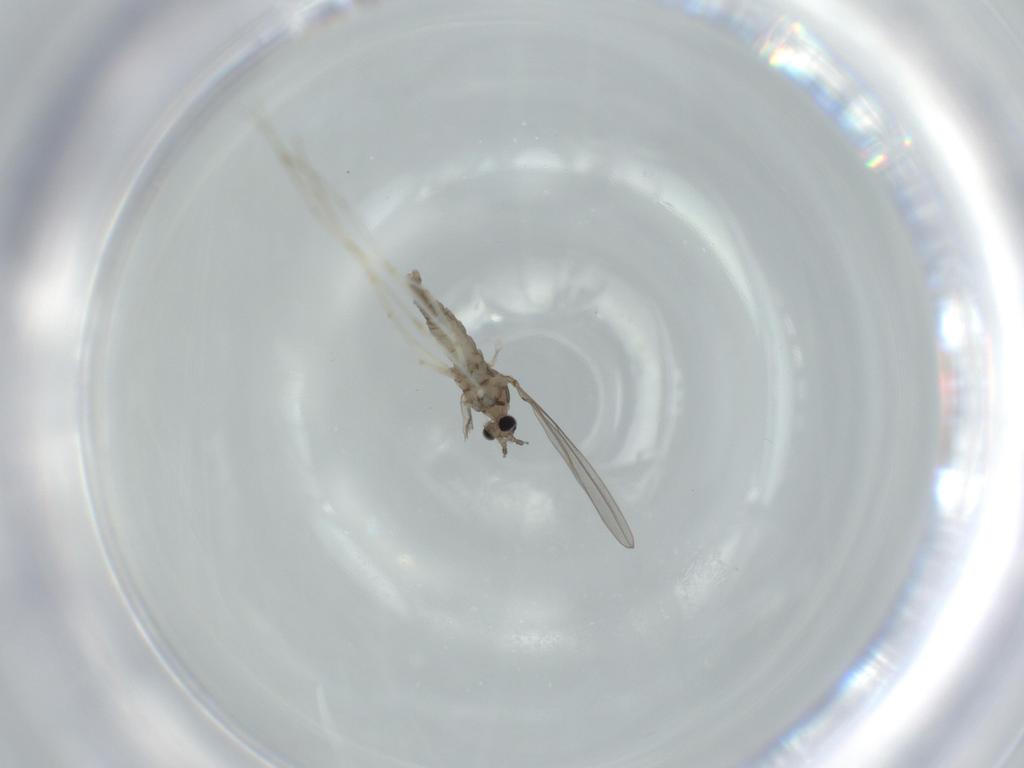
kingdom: Animalia
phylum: Arthropoda
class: Insecta
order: Diptera
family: Cecidomyiidae
